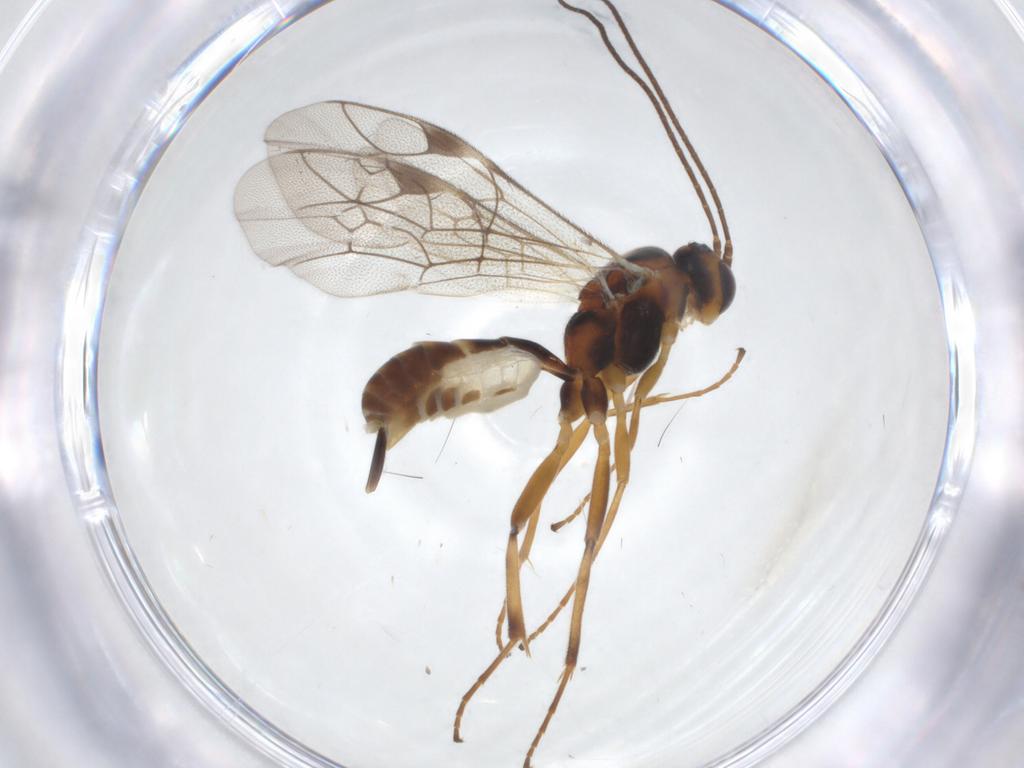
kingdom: Animalia
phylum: Arthropoda
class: Insecta
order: Hymenoptera
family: Ichneumonidae
